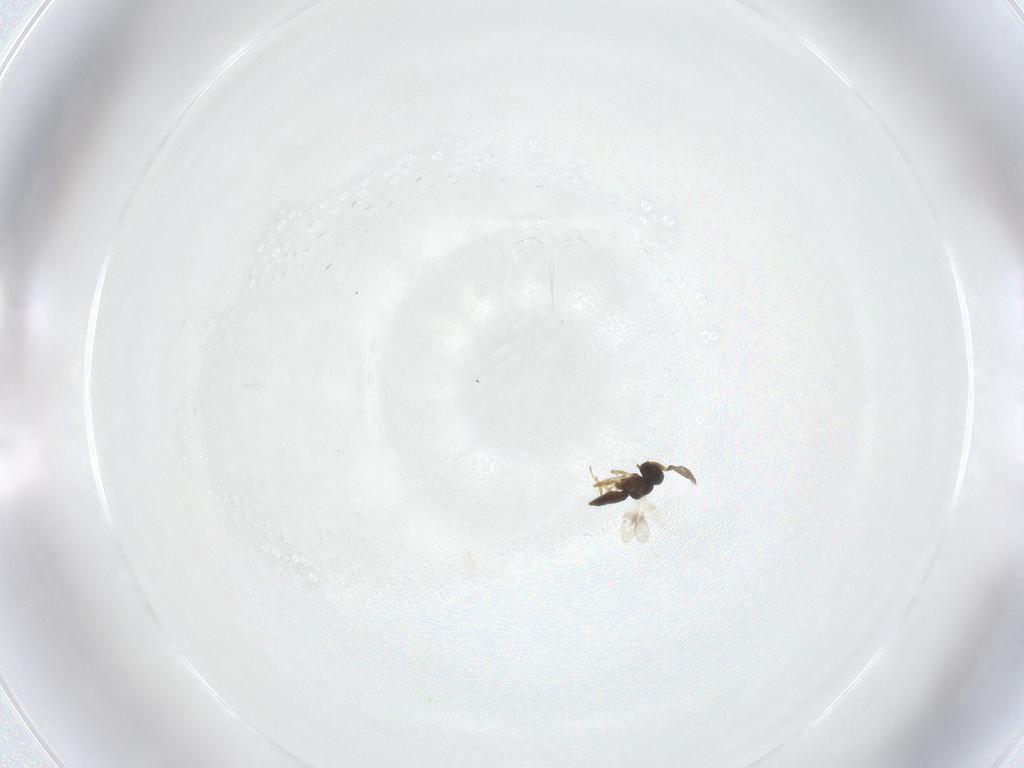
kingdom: Animalia
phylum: Arthropoda
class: Insecta
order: Hymenoptera
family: Scelionidae
